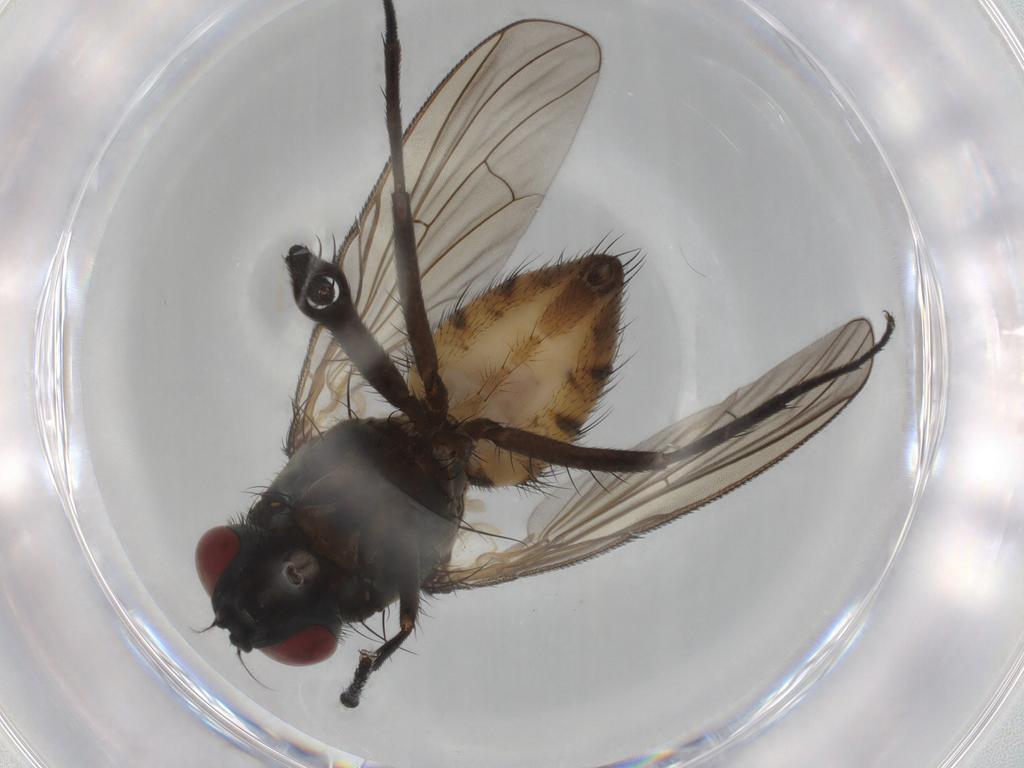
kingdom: Animalia
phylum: Arthropoda
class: Insecta
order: Diptera
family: Muscidae
